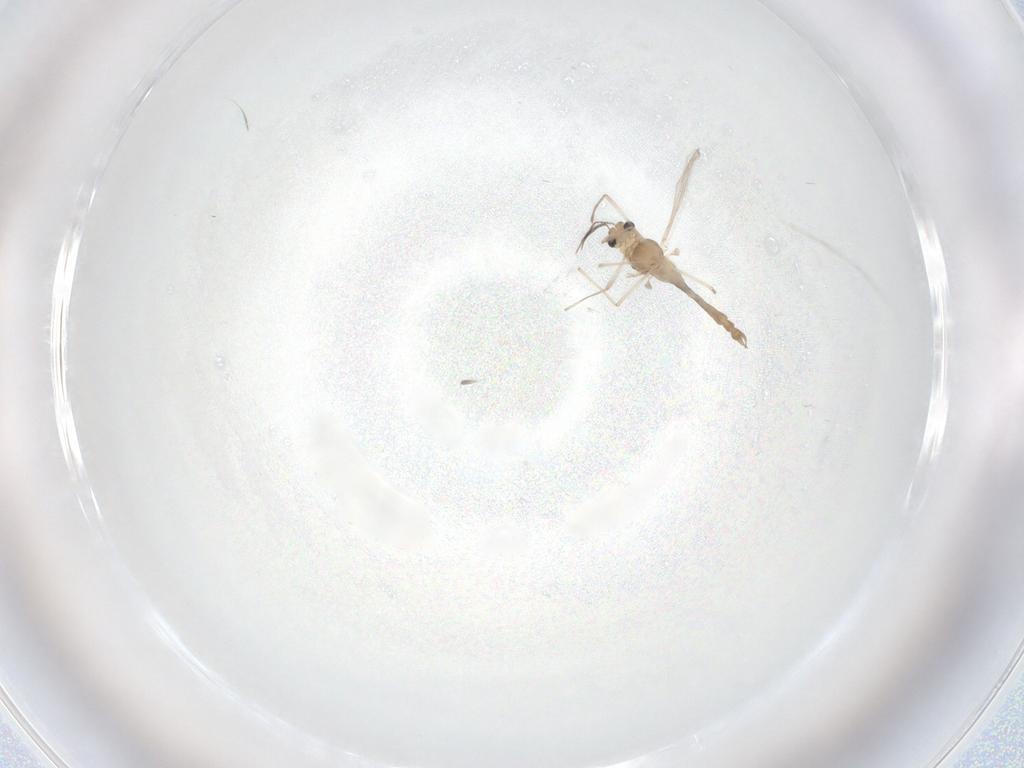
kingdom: Animalia
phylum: Arthropoda
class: Insecta
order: Diptera
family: Chironomidae
